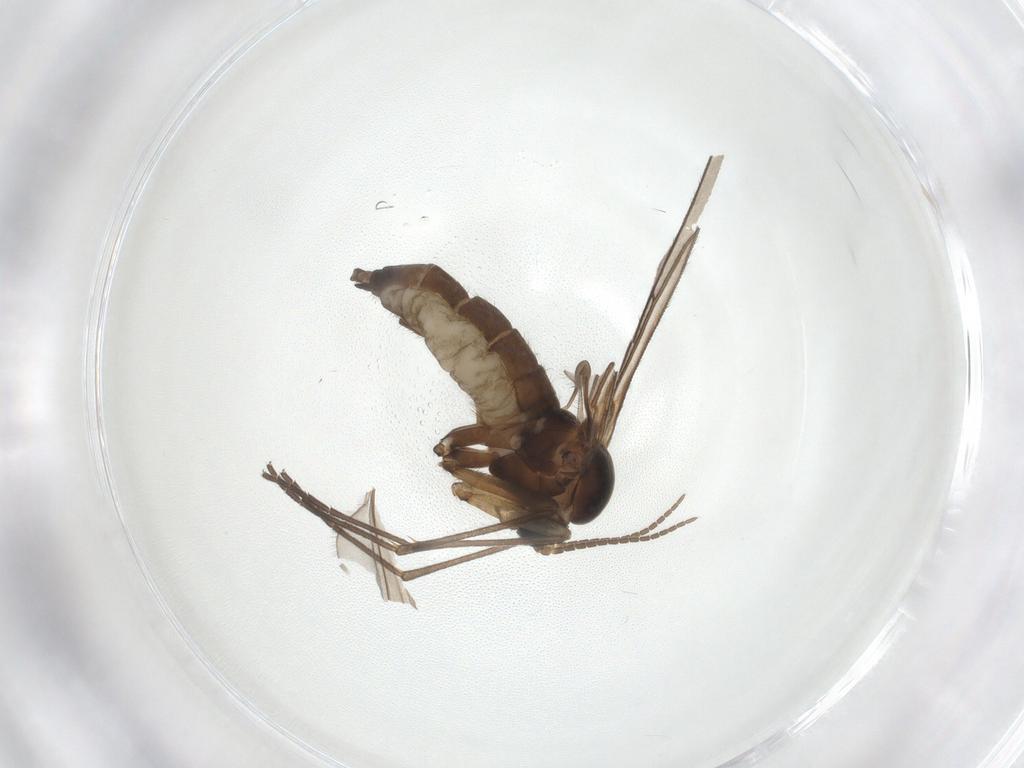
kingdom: Animalia
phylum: Arthropoda
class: Insecta
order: Diptera
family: Sciaridae
